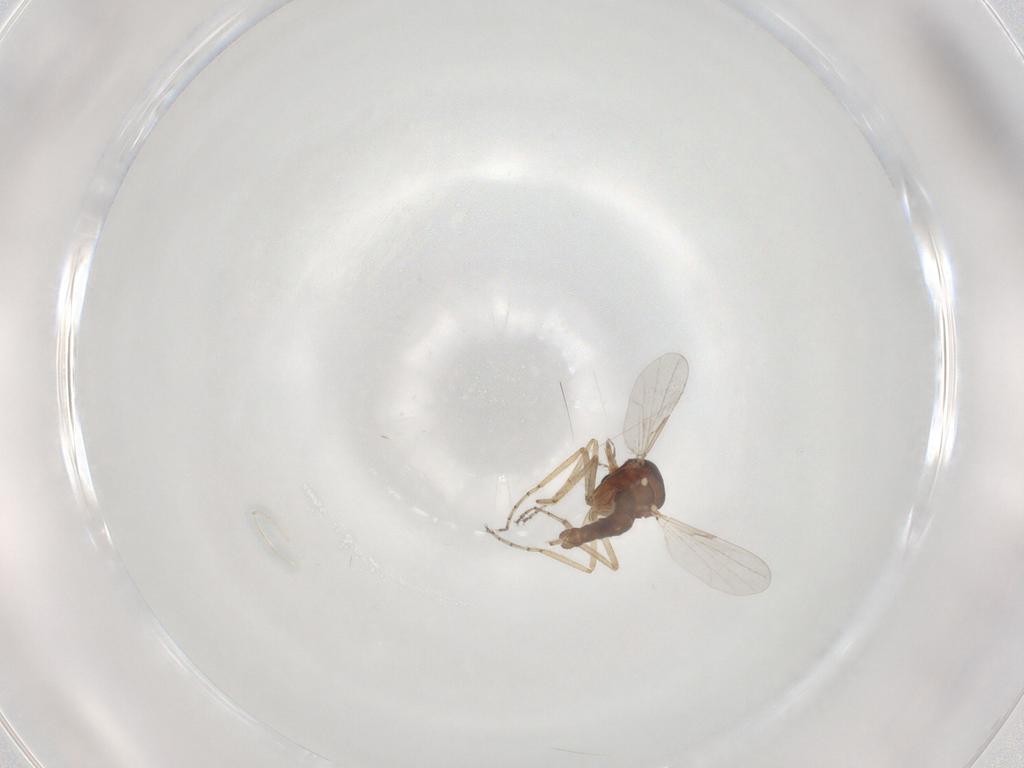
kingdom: Animalia
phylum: Arthropoda
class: Insecta
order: Diptera
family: Ceratopogonidae
